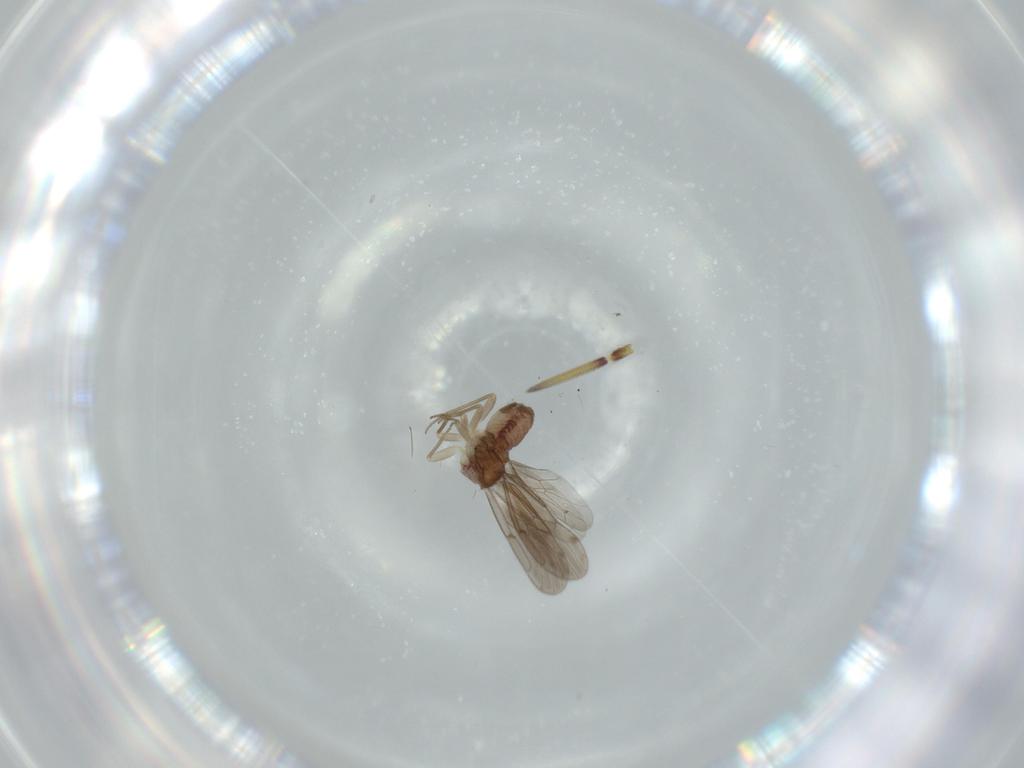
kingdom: Animalia
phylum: Arthropoda
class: Insecta
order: Psocodea
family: Ectopsocidae
